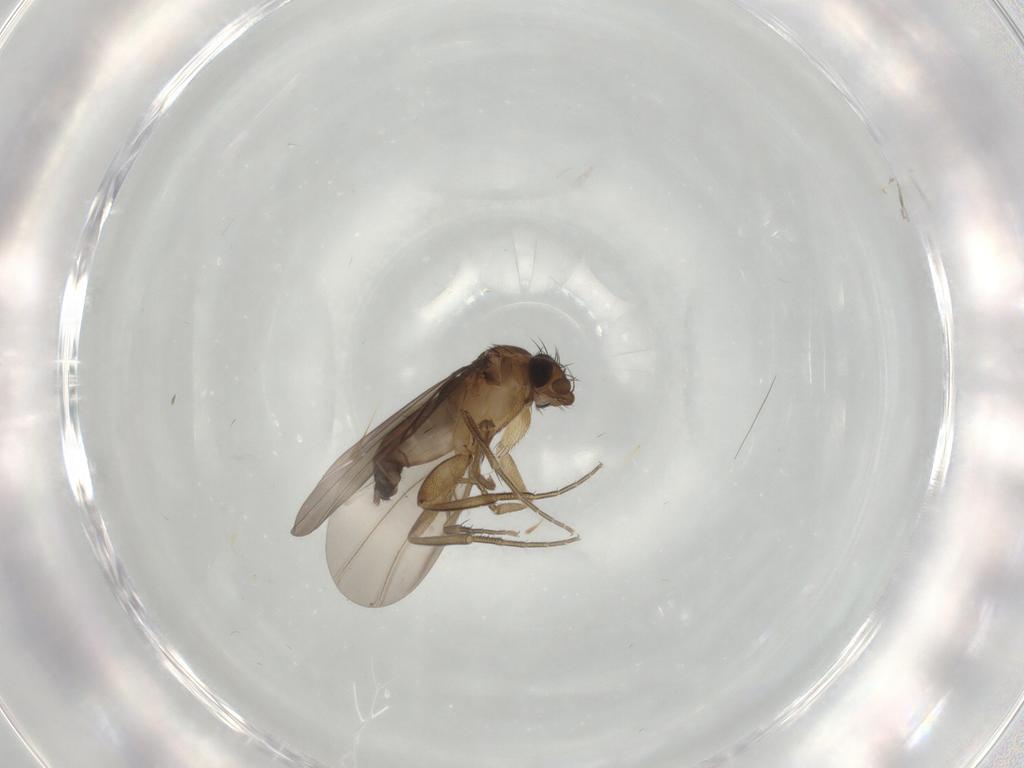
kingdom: Animalia
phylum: Arthropoda
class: Insecta
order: Diptera
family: Phoridae
